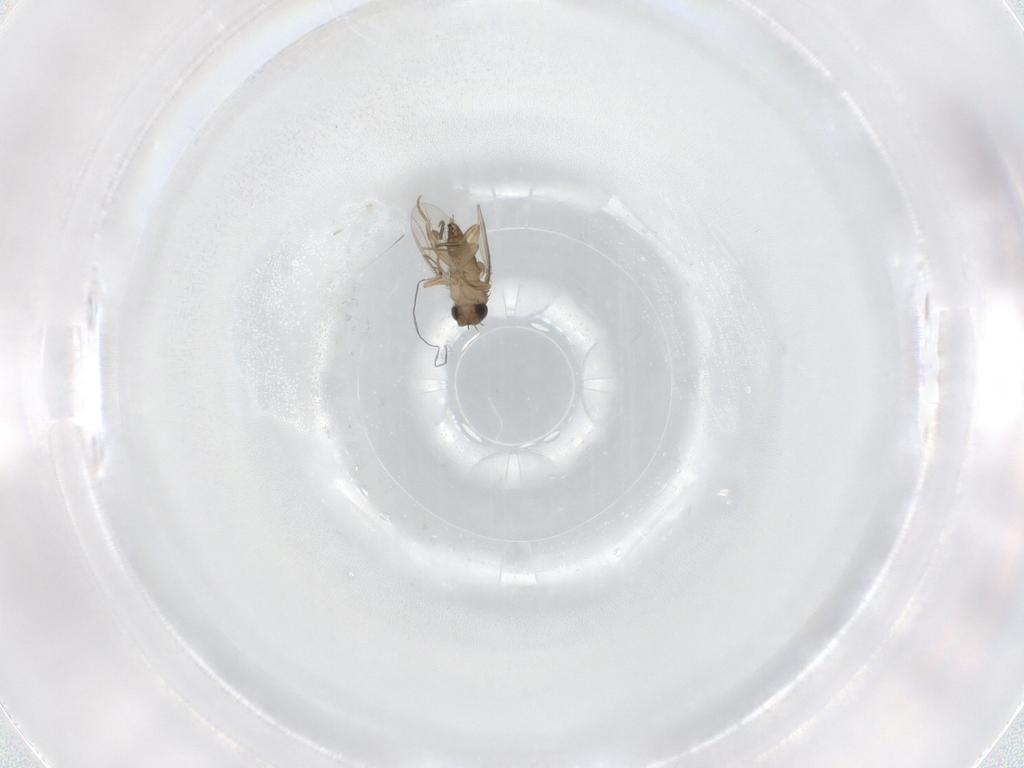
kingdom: Animalia
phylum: Arthropoda
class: Insecta
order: Diptera
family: Phoridae
